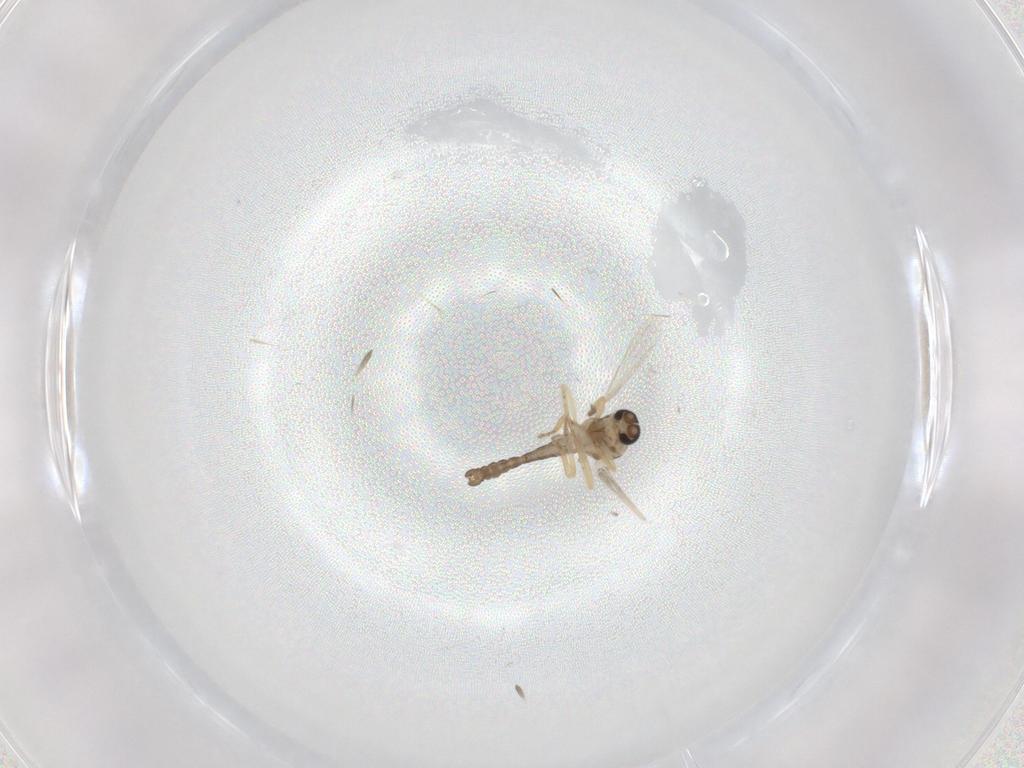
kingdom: Animalia
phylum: Arthropoda
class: Insecta
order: Diptera
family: Ceratopogonidae
